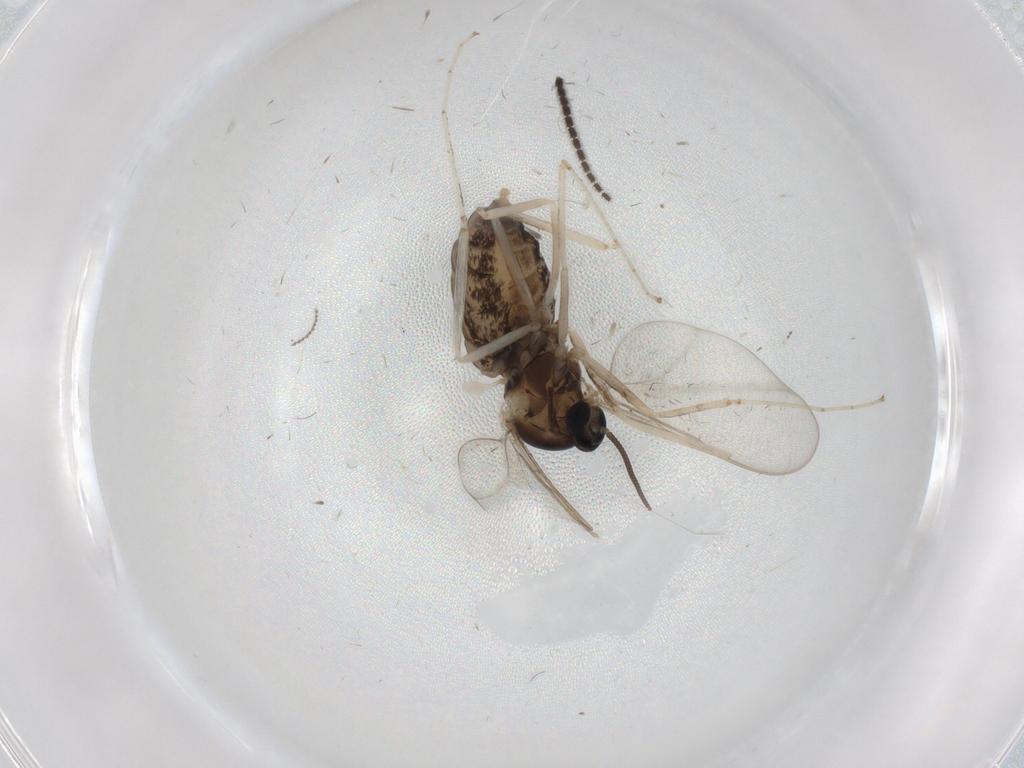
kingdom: Animalia
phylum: Arthropoda
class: Insecta
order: Diptera
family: Cecidomyiidae
